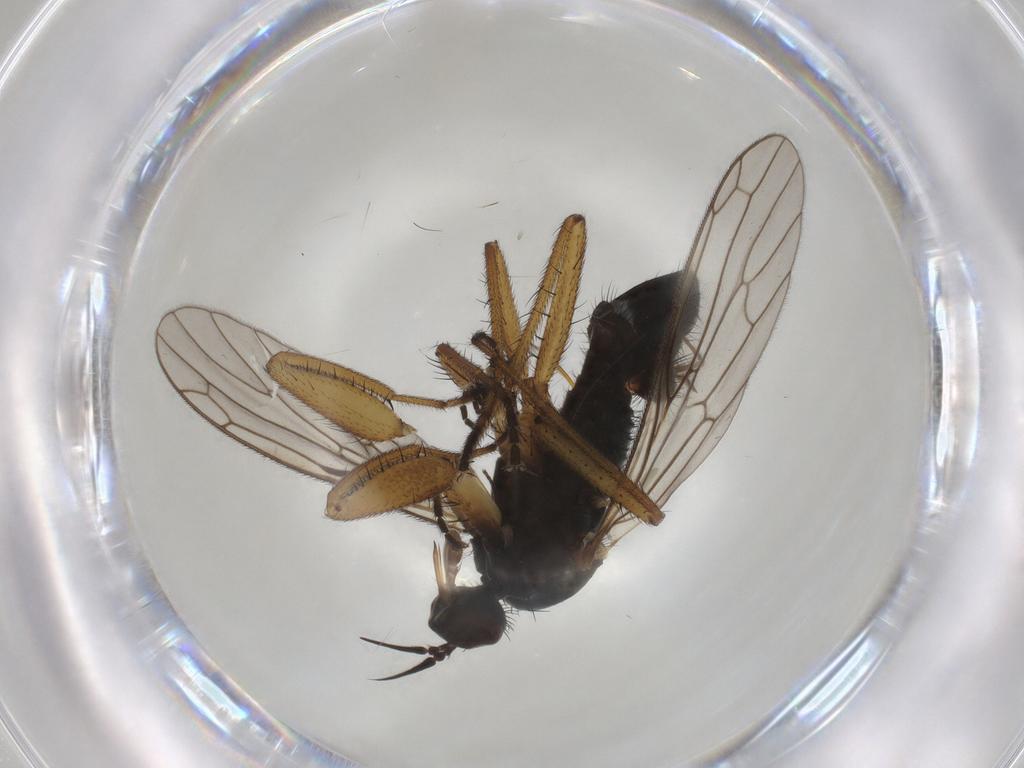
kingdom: Animalia
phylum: Arthropoda
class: Insecta
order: Diptera
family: Empididae
